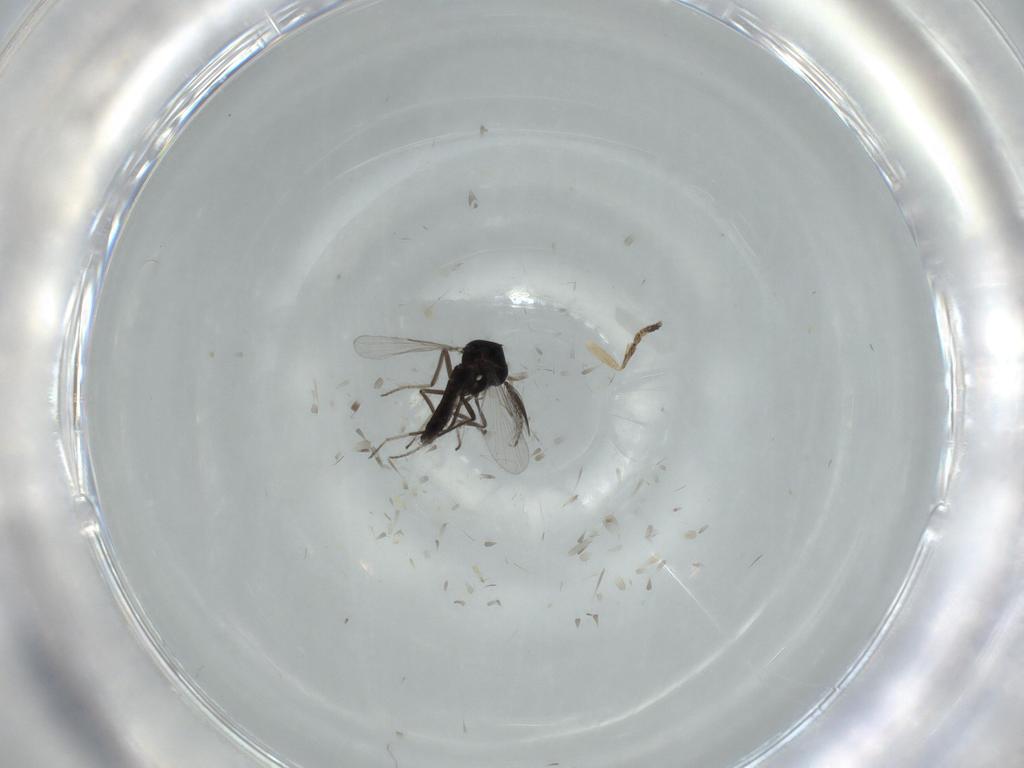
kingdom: Animalia
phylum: Arthropoda
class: Insecta
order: Diptera
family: Ceratopogonidae
